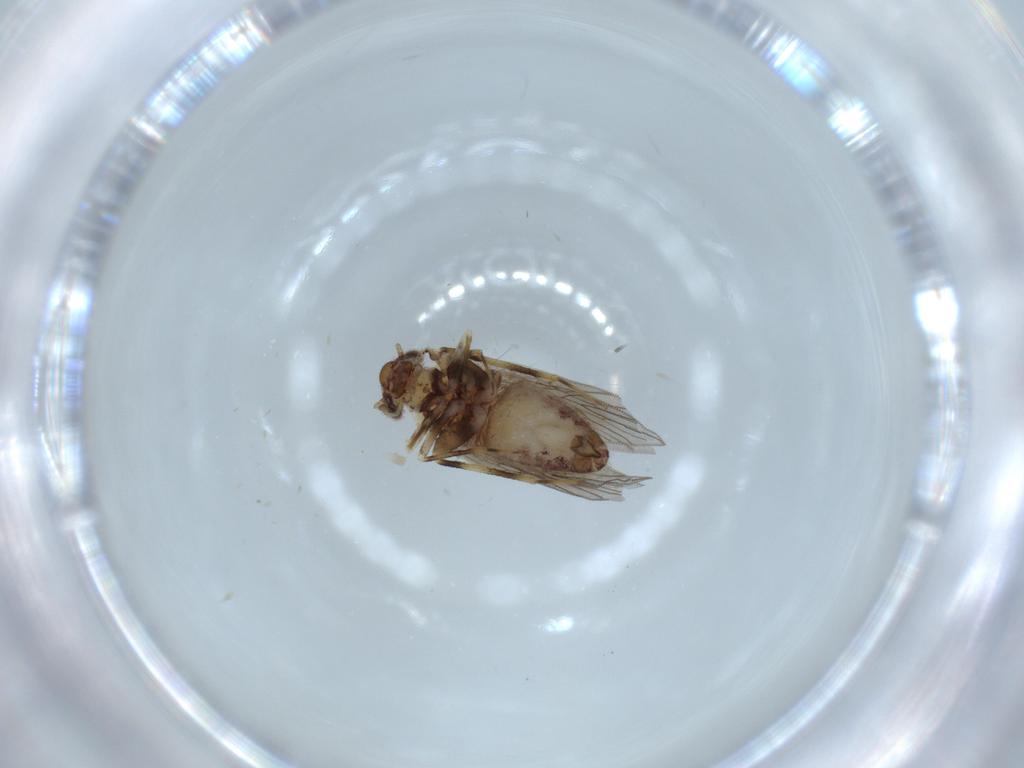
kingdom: Animalia
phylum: Arthropoda
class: Insecta
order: Psocodea
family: Lepidopsocidae
